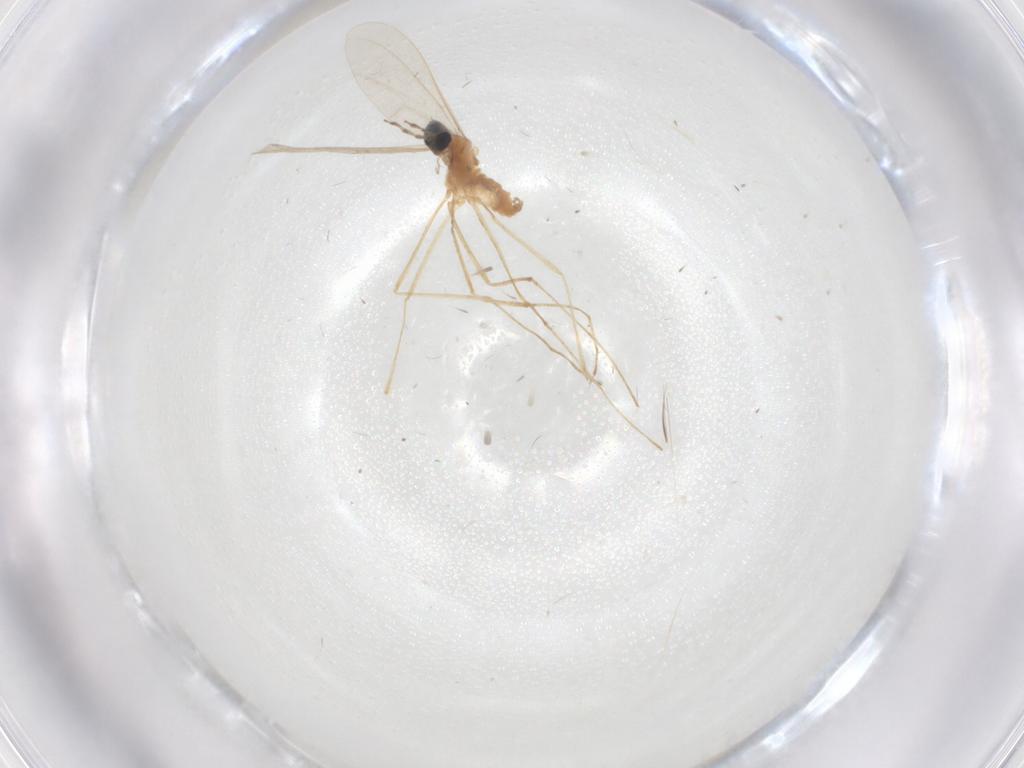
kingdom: Animalia
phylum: Arthropoda
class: Insecta
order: Diptera
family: Cecidomyiidae
